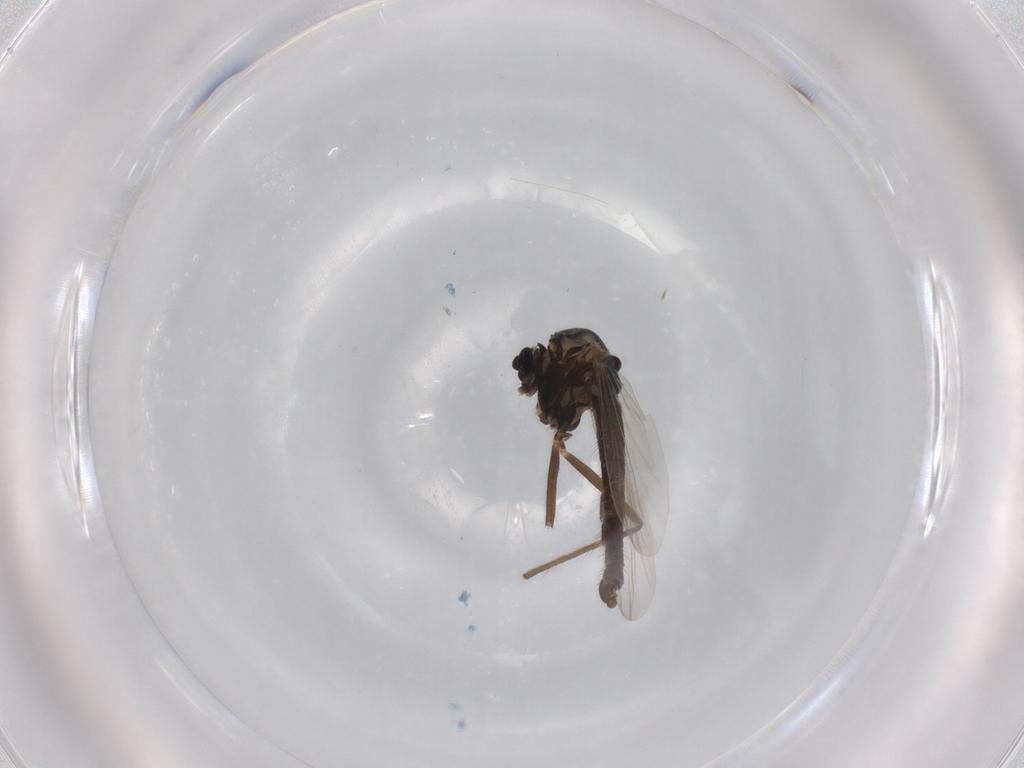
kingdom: Animalia
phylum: Arthropoda
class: Insecta
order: Diptera
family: Chironomidae
